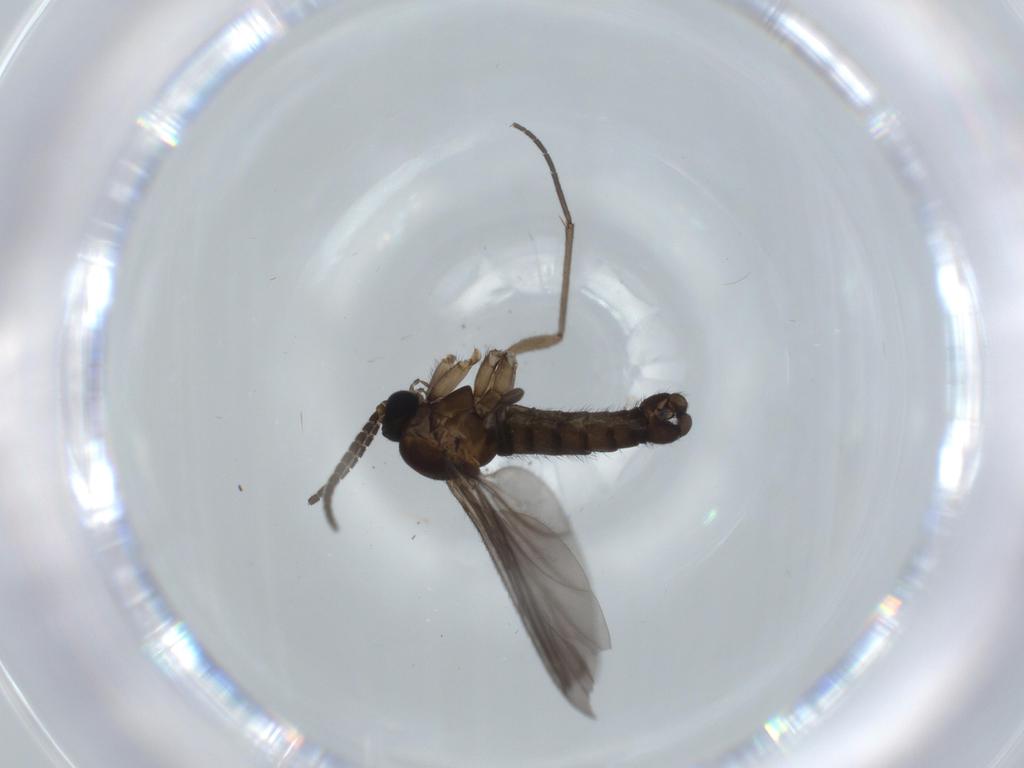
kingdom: Animalia
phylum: Arthropoda
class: Insecta
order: Diptera
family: Sciaridae
